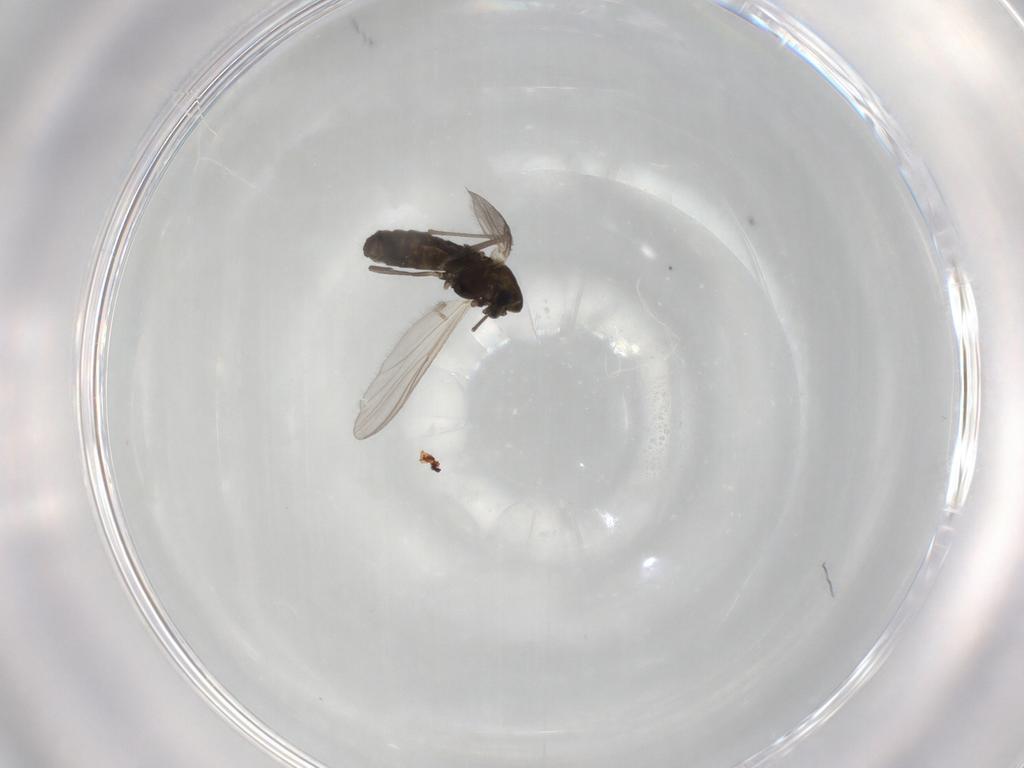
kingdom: Animalia
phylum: Arthropoda
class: Insecta
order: Diptera
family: Chironomidae
